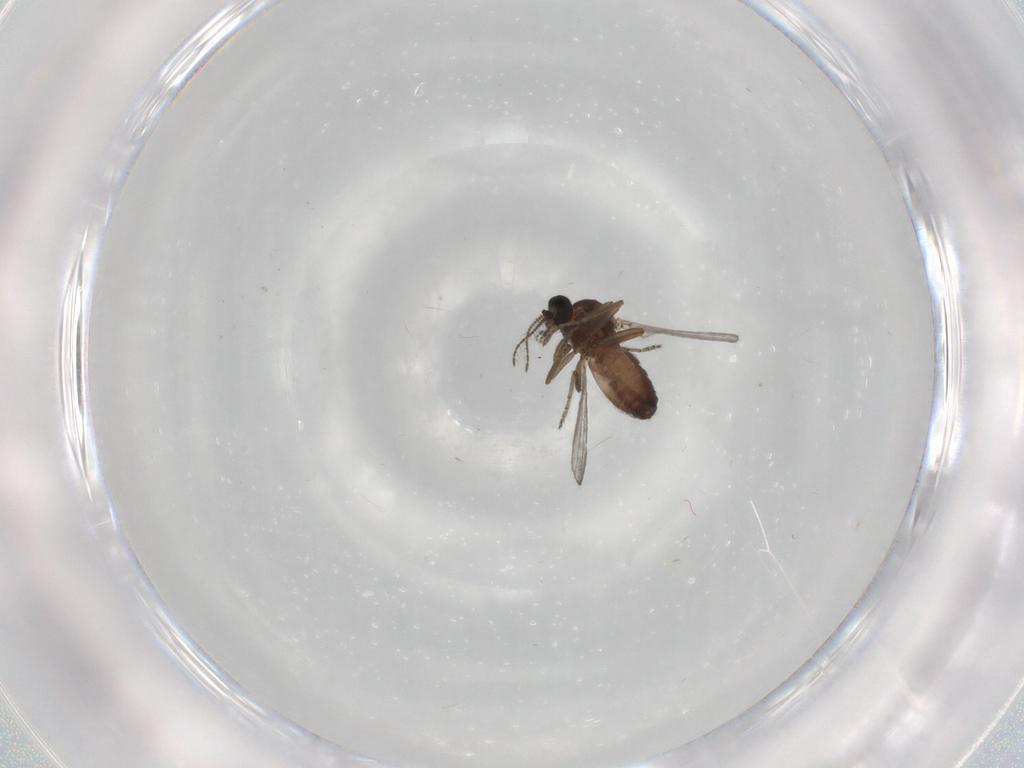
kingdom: Animalia
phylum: Arthropoda
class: Insecta
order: Diptera
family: Ceratopogonidae
